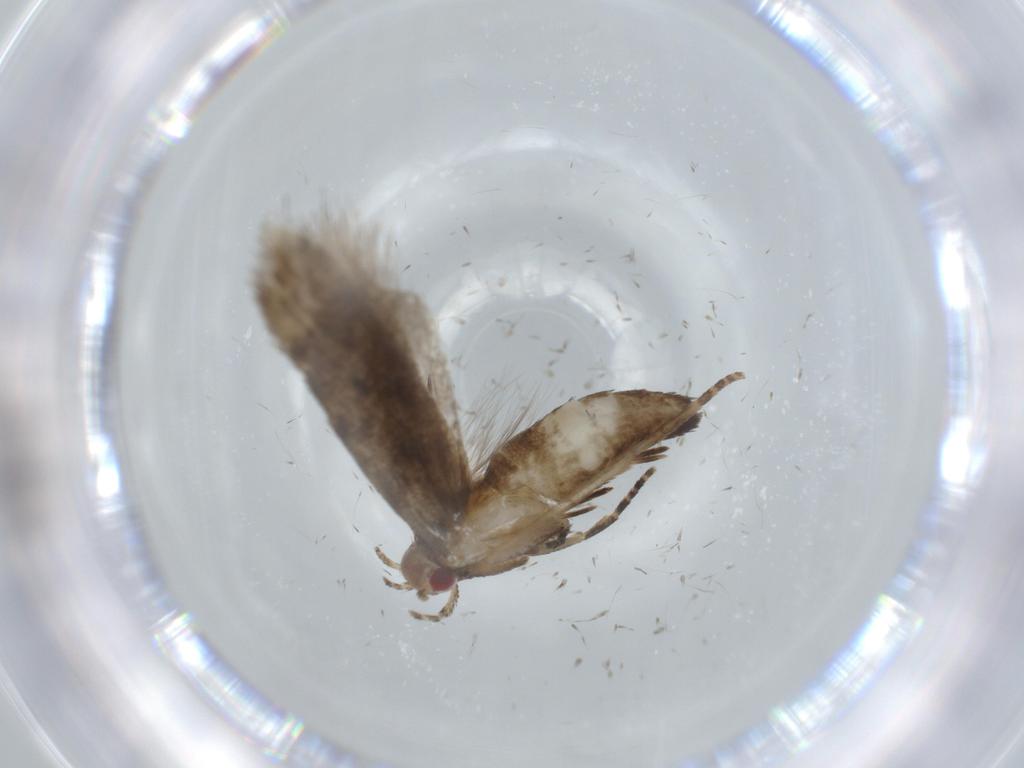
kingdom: Animalia
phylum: Arthropoda
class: Insecta
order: Lepidoptera
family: Cosmopterigidae
